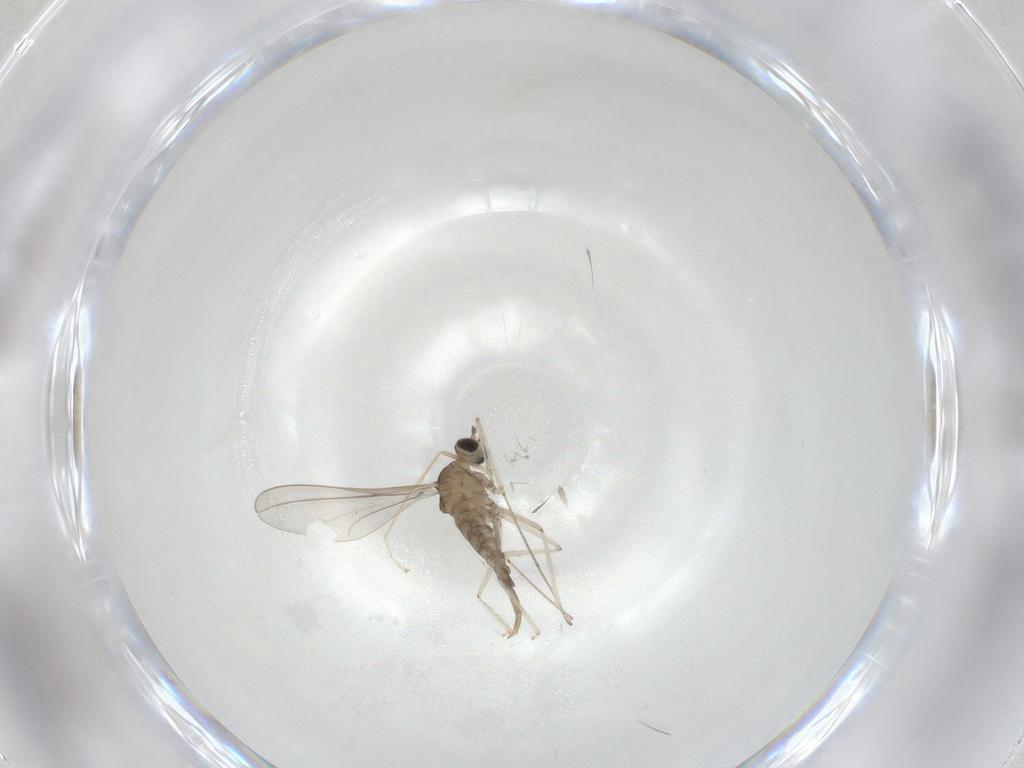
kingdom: Animalia
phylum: Arthropoda
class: Insecta
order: Diptera
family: Cecidomyiidae
